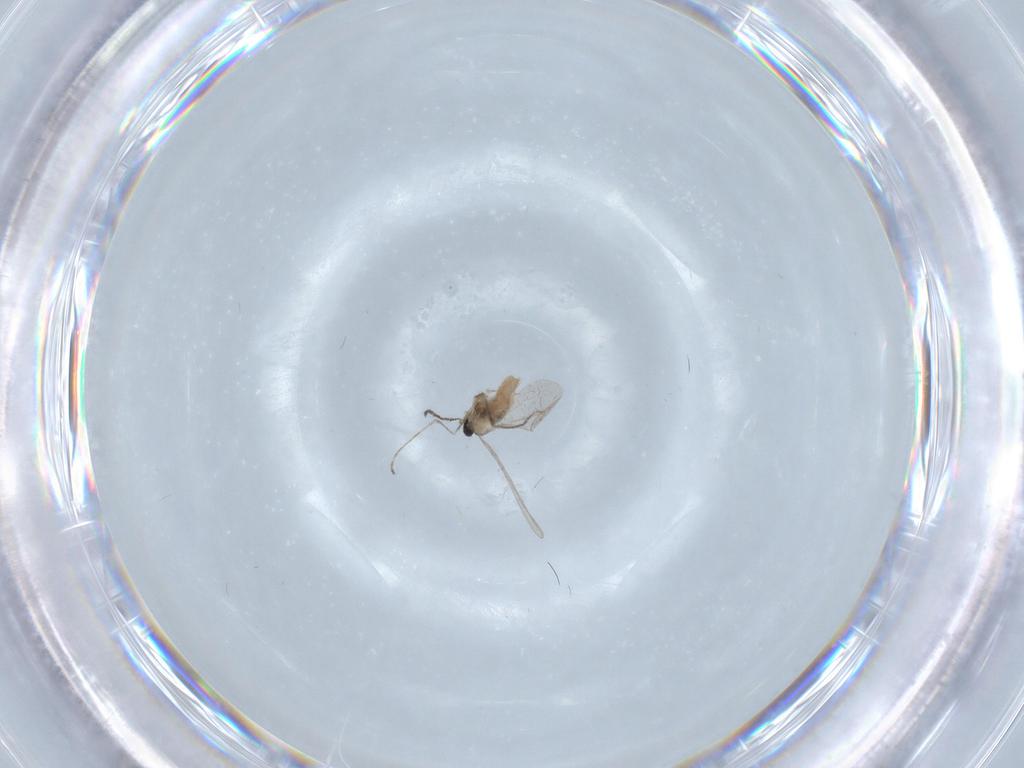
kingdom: Animalia
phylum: Arthropoda
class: Insecta
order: Diptera
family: Cecidomyiidae
